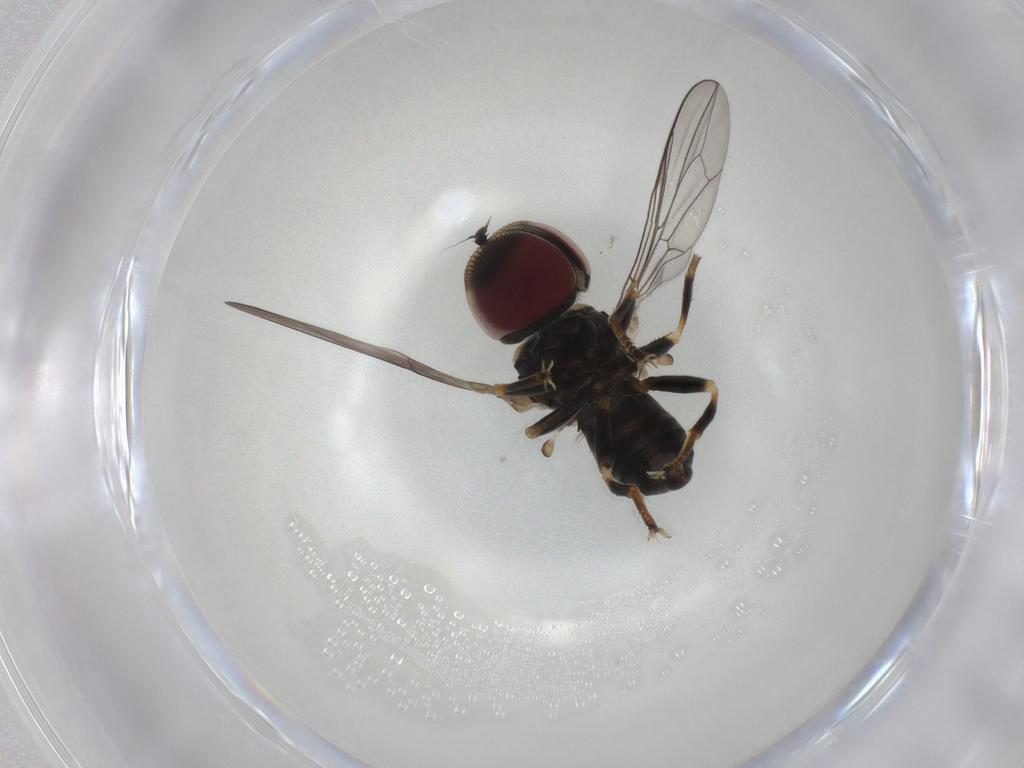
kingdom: Animalia
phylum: Arthropoda
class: Insecta
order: Diptera
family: Pipunculidae
